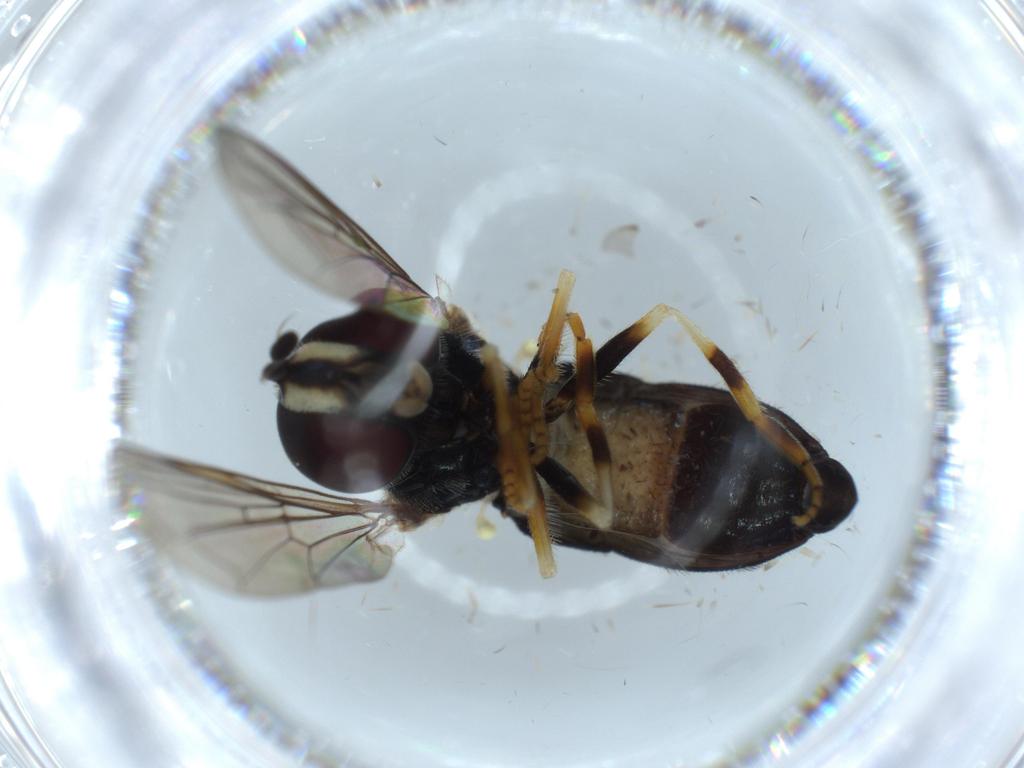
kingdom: Animalia
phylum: Arthropoda
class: Insecta
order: Diptera
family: Syrphidae
